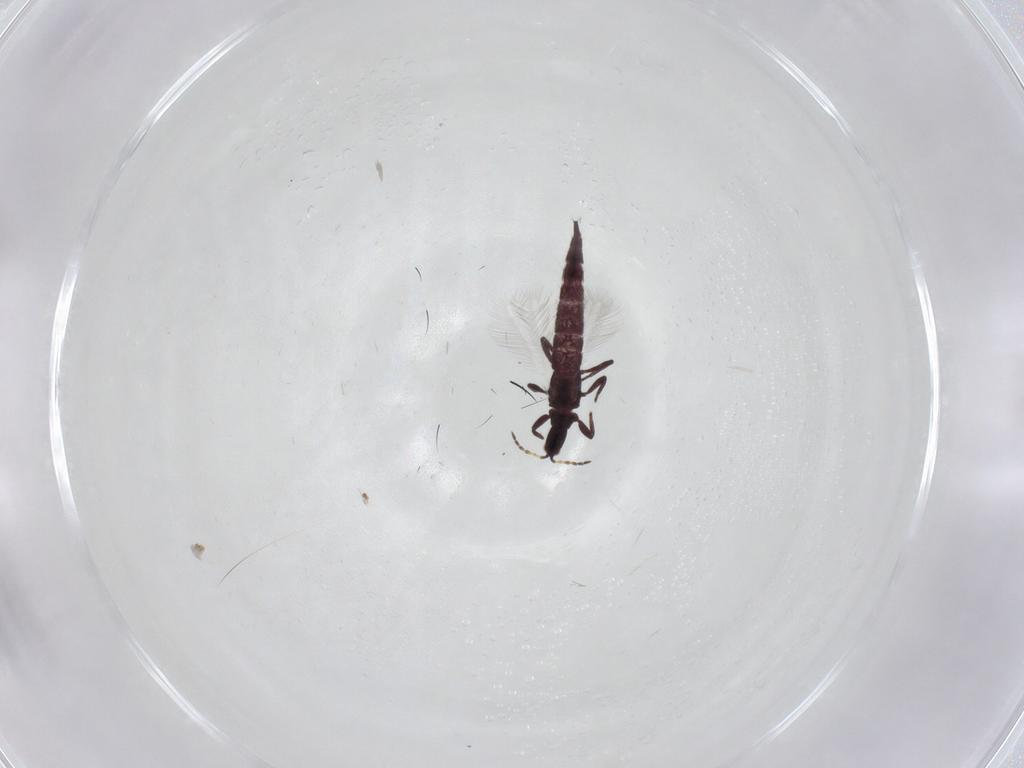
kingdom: Animalia
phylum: Arthropoda
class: Insecta
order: Thysanoptera
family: Phlaeothripidae
